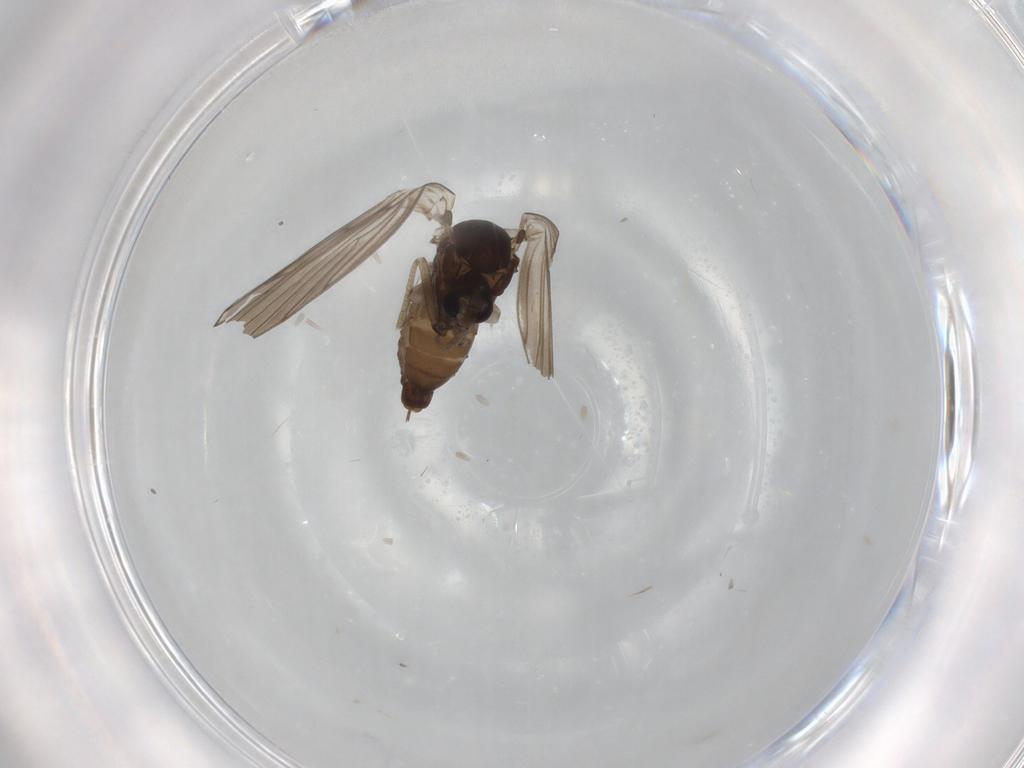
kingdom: Animalia
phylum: Arthropoda
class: Insecta
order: Diptera
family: Psychodidae
